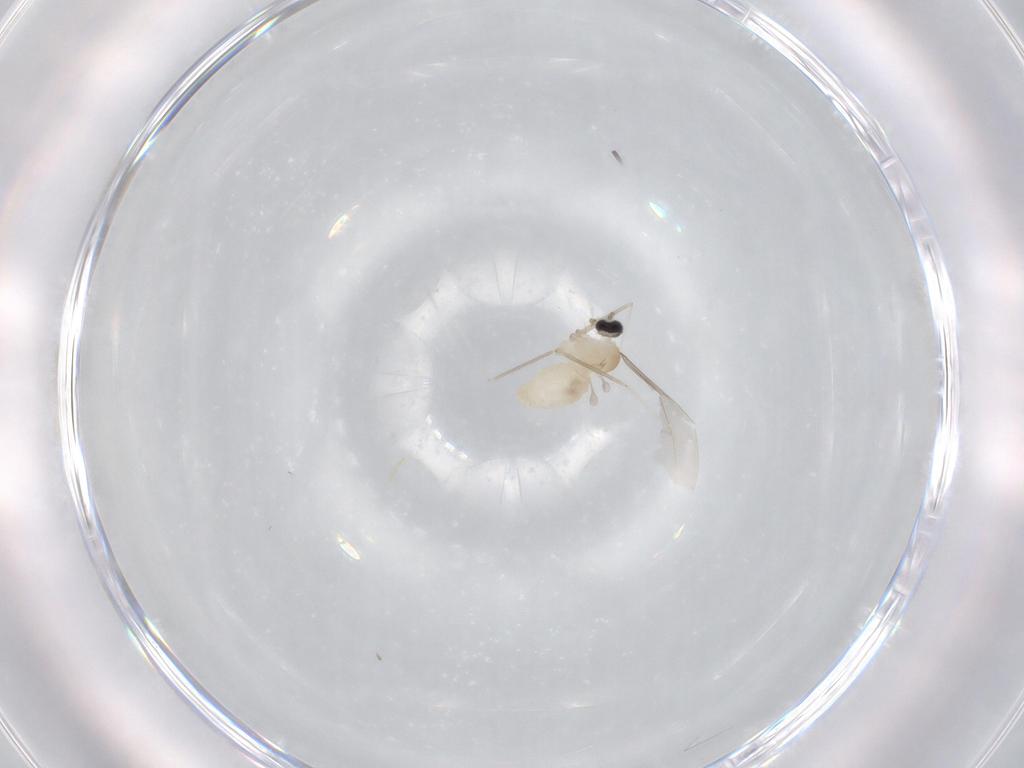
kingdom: Animalia
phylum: Arthropoda
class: Insecta
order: Diptera
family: Cecidomyiidae
